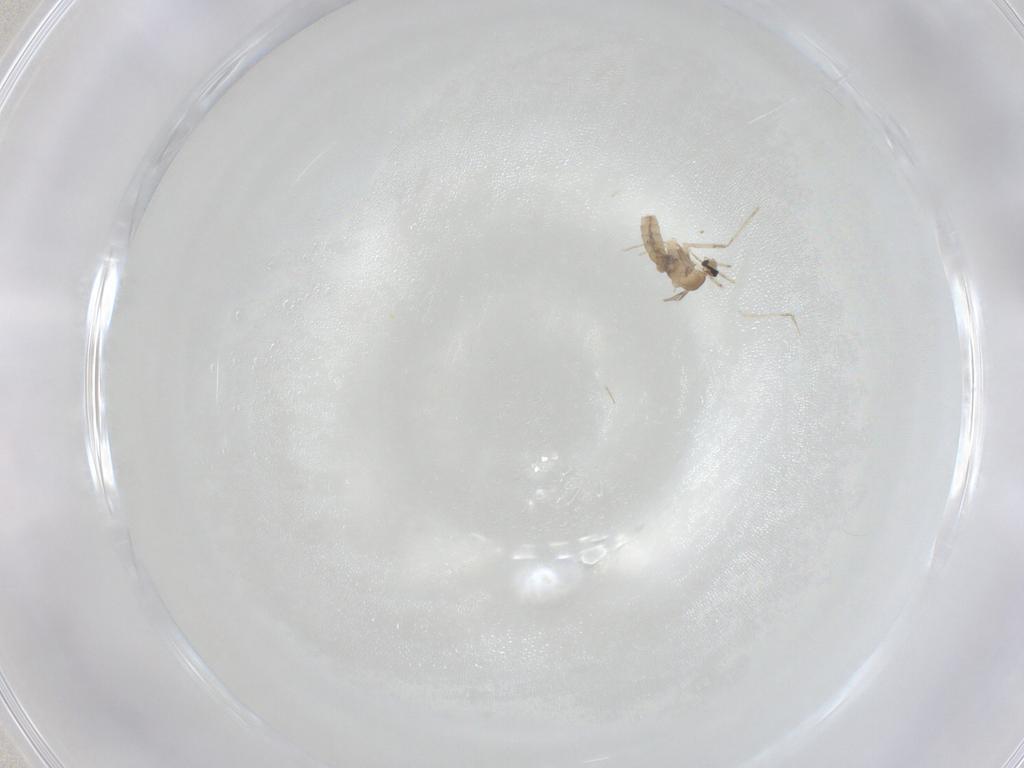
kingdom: Animalia
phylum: Arthropoda
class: Insecta
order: Diptera
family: Cecidomyiidae
